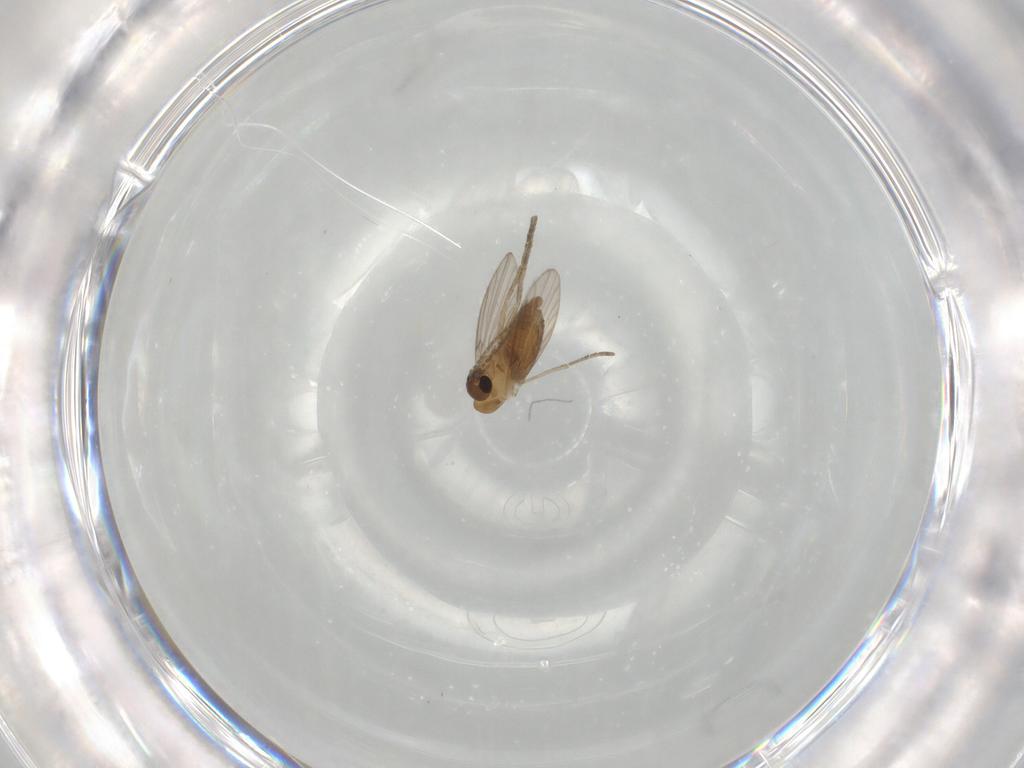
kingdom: Animalia
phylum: Arthropoda
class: Insecta
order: Diptera
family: Psychodidae
